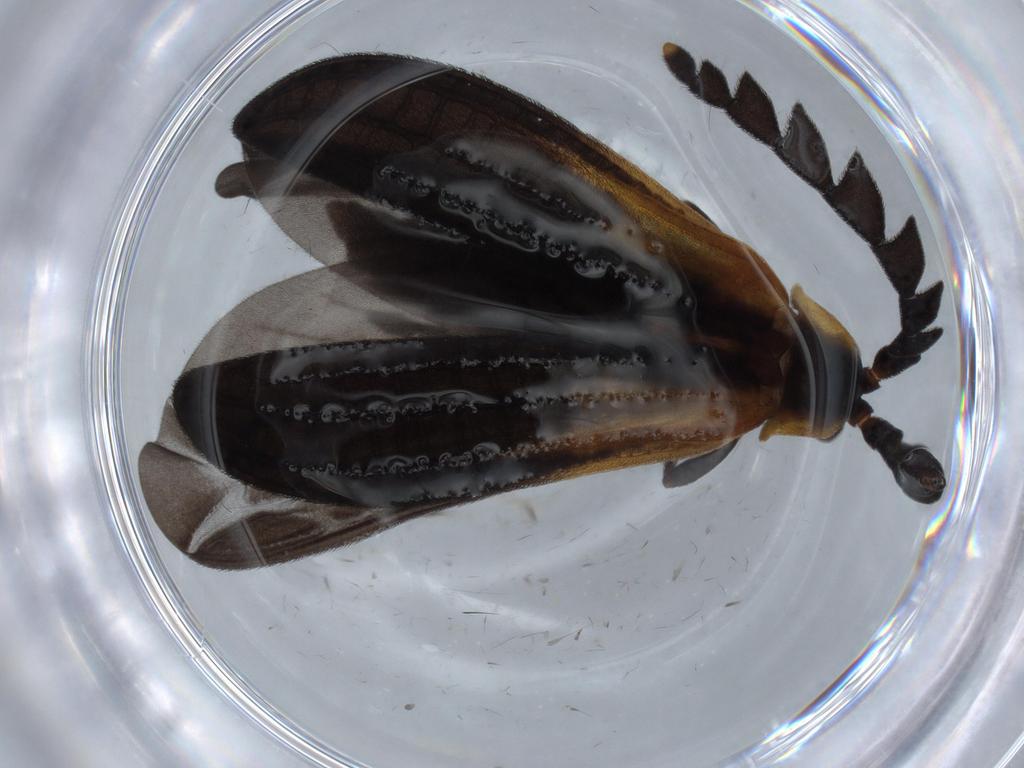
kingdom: Animalia
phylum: Arthropoda
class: Insecta
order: Coleoptera
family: Lycidae
